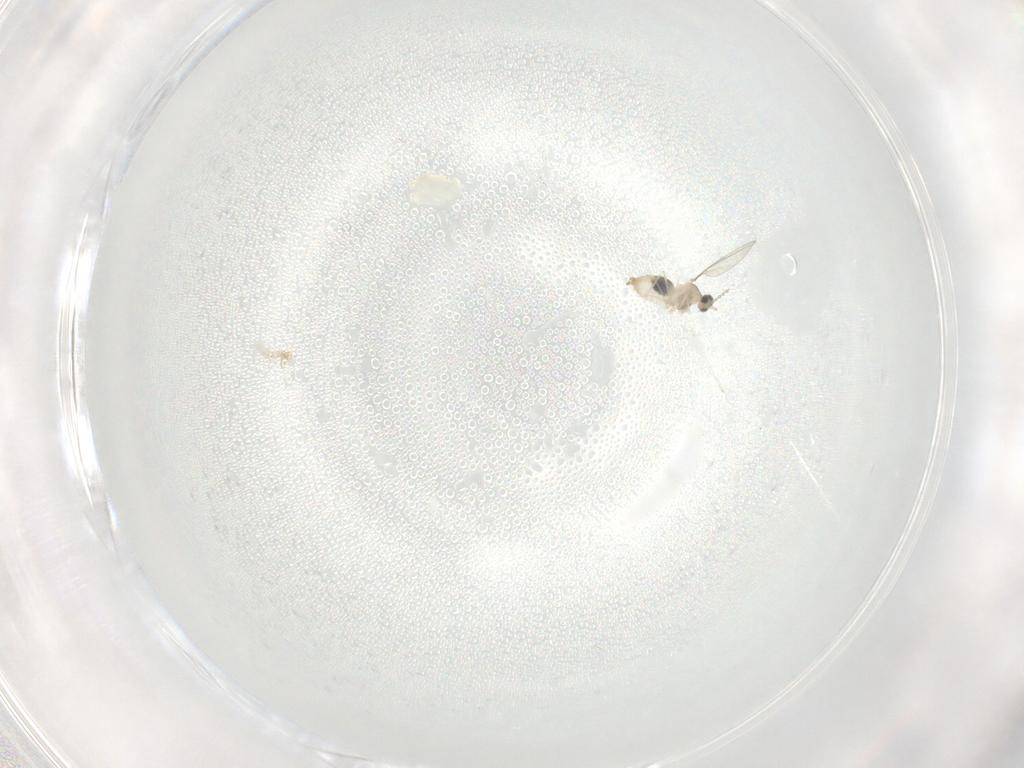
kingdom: Animalia
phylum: Arthropoda
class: Insecta
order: Diptera
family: Cecidomyiidae
